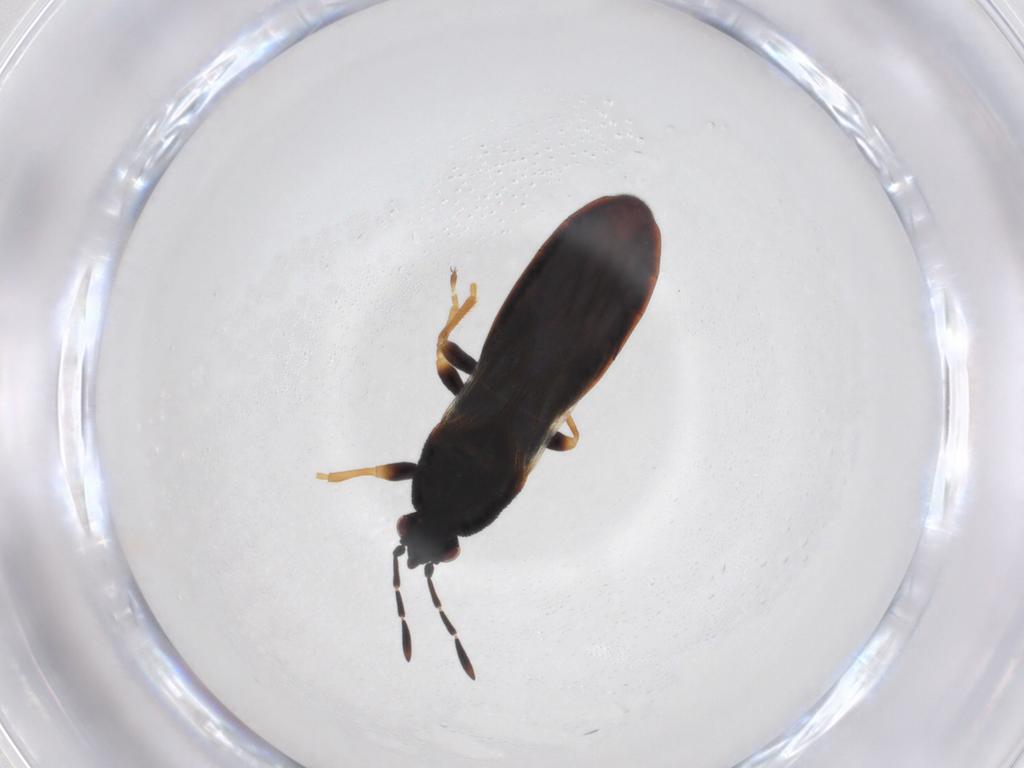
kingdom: Animalia
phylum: Arthropoda
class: Insecta
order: Hemiptera
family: Blissidae
